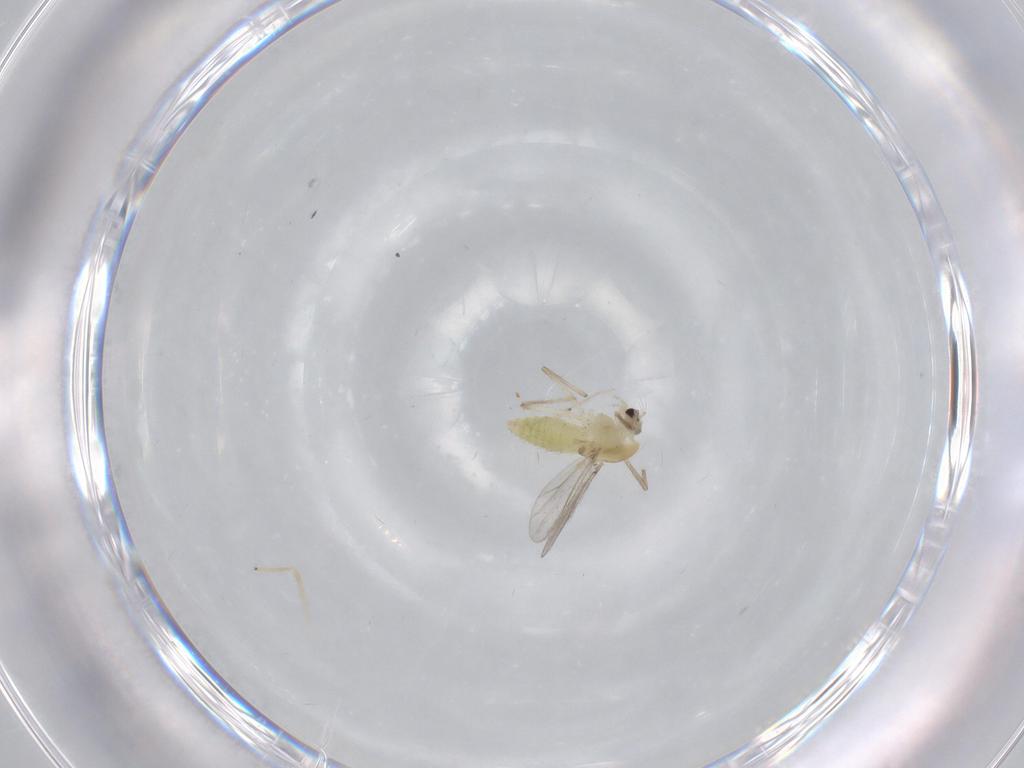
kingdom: Animalia
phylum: Arthropoda
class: Insecta
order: Diptera
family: Chironomidae
